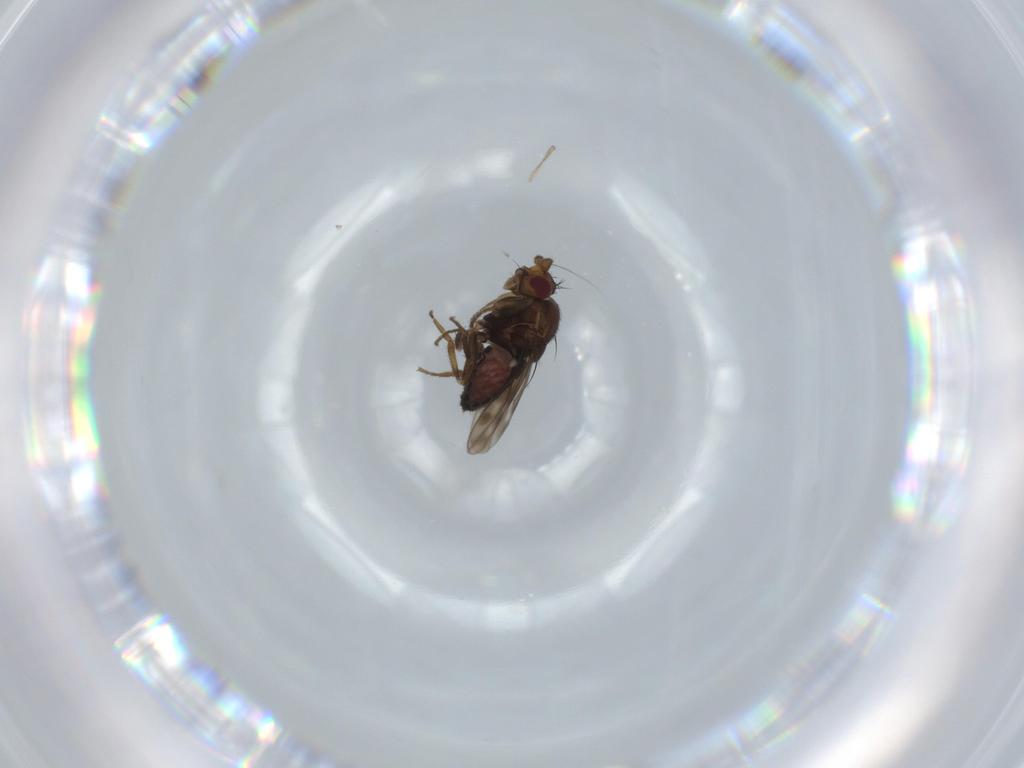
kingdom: Animalia
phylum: Arthropoda
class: Insecta
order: Diptera
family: Sphaeroceridae
